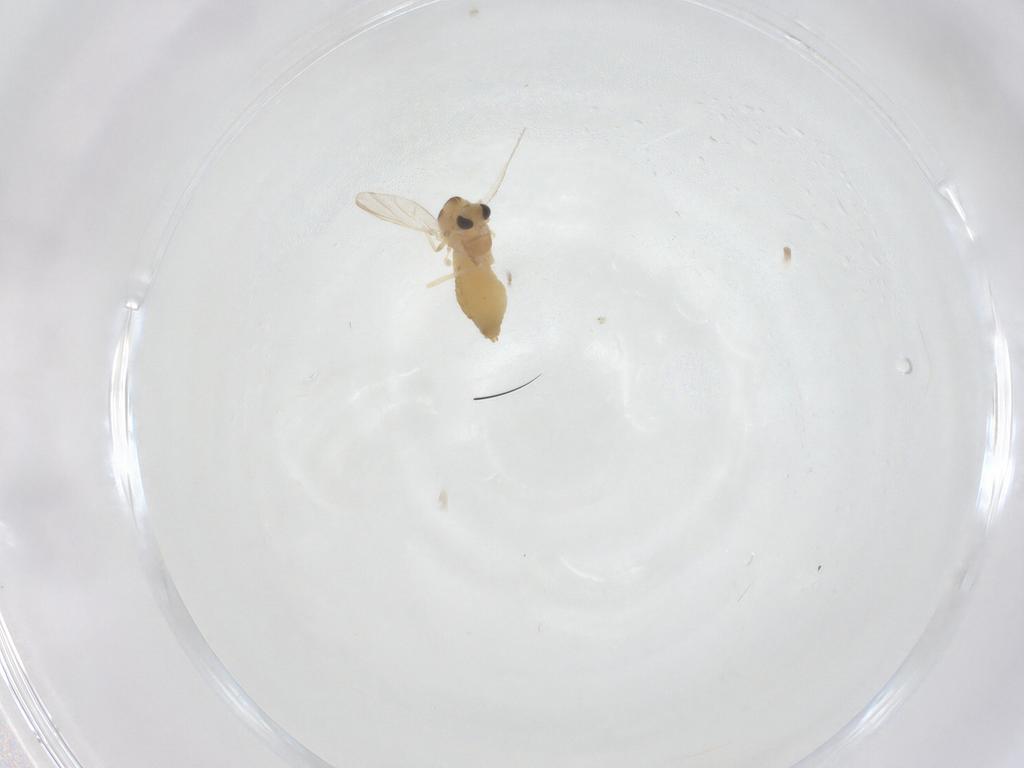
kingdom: Animalia
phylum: Arthropoda
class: Insecta
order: Diptera
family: Chironomidae
